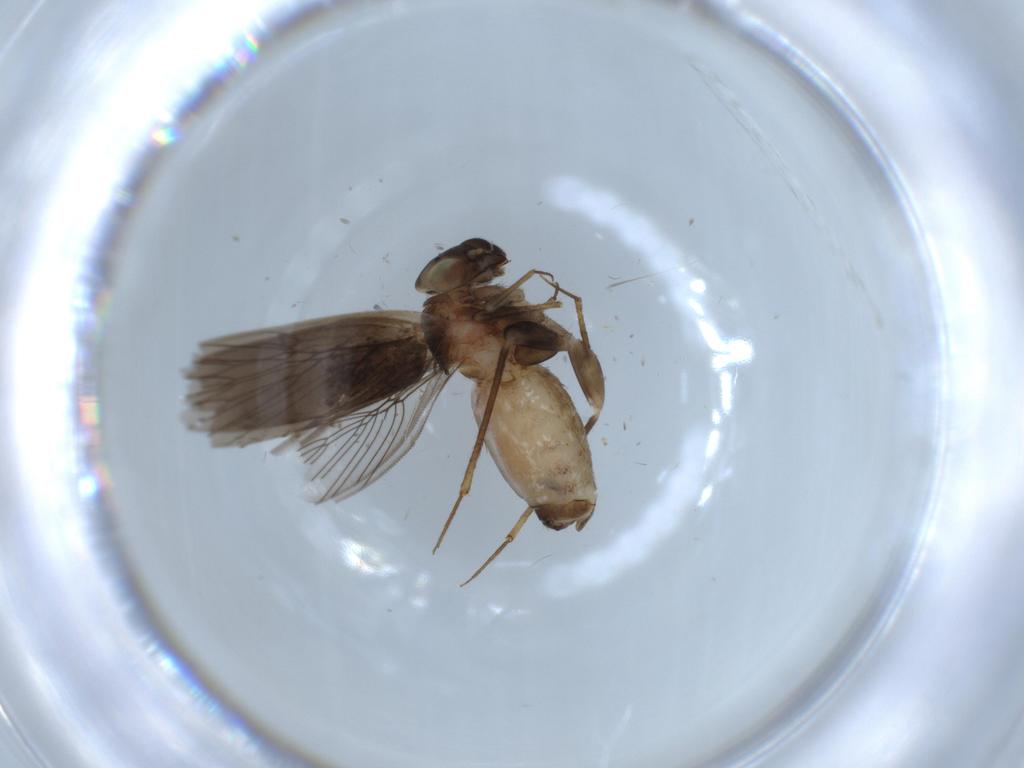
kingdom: Animalia
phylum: Arthropoda
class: Insecta
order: Psocodea
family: Lepidopsocidae
